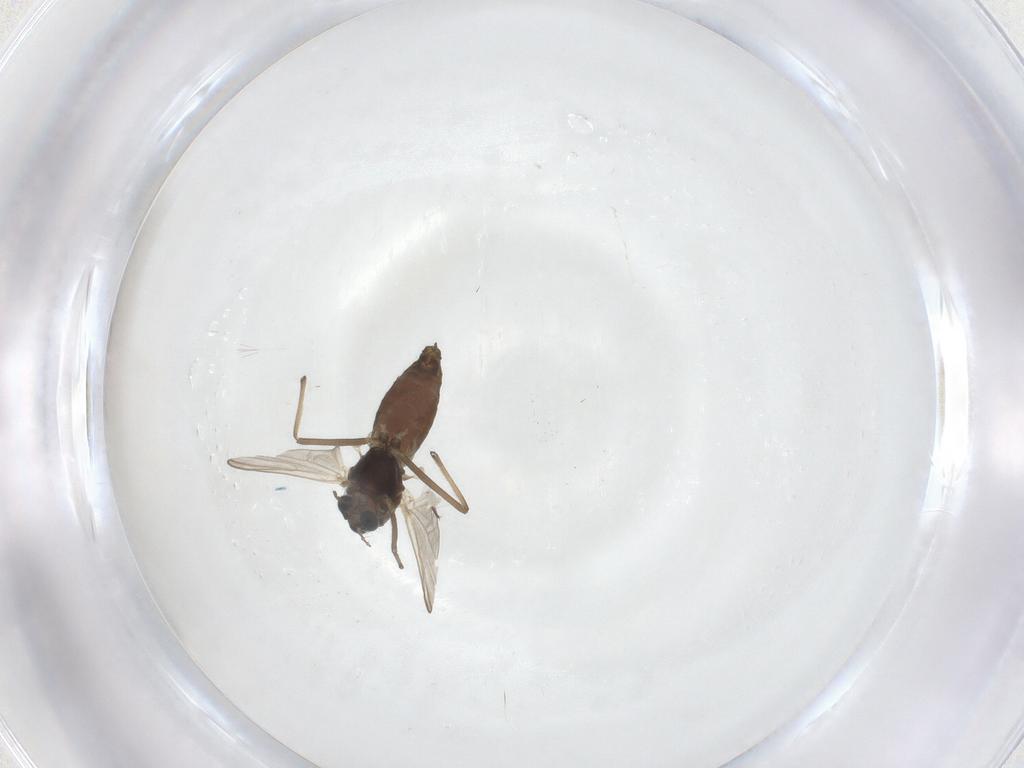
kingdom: Animalia
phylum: Arthropoda
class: Insecta
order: Diptera
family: Chironomidae
